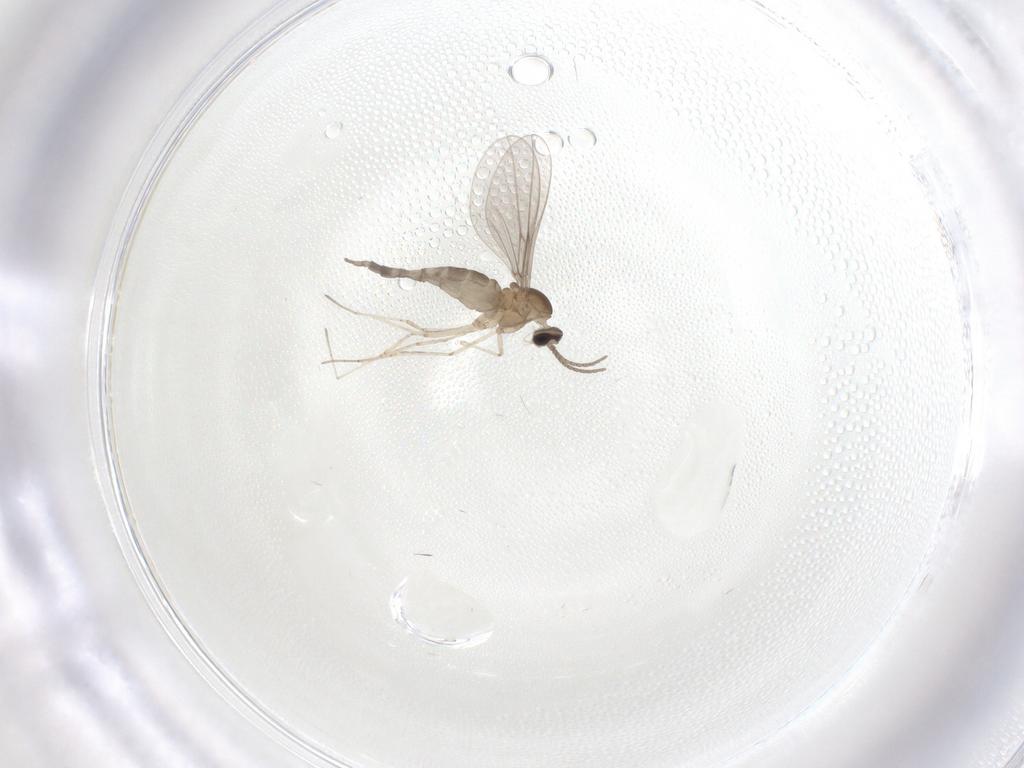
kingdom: Animalia
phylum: Arthropoda
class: Insecta
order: Diptera
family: Cecidomyiidae
